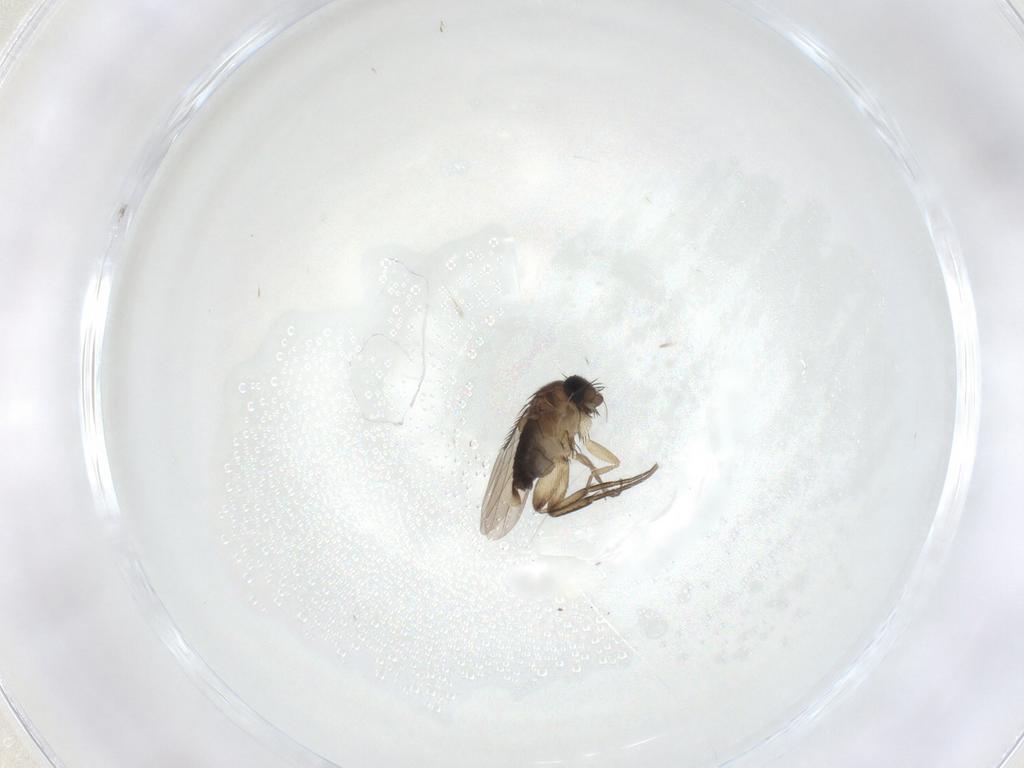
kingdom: Animalia
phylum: Arthropoda
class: Insecta
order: Diptera
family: Phoridae
